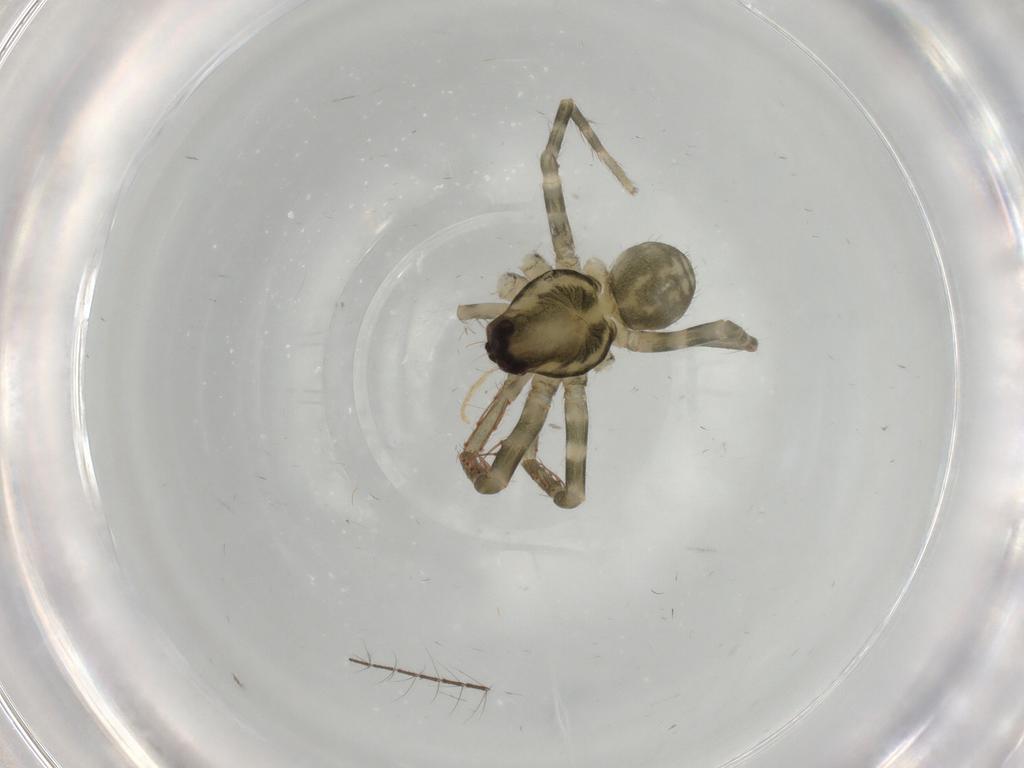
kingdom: Animalia
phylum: Arthropoda
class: Arachnida
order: Araneae
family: Ctenidae
